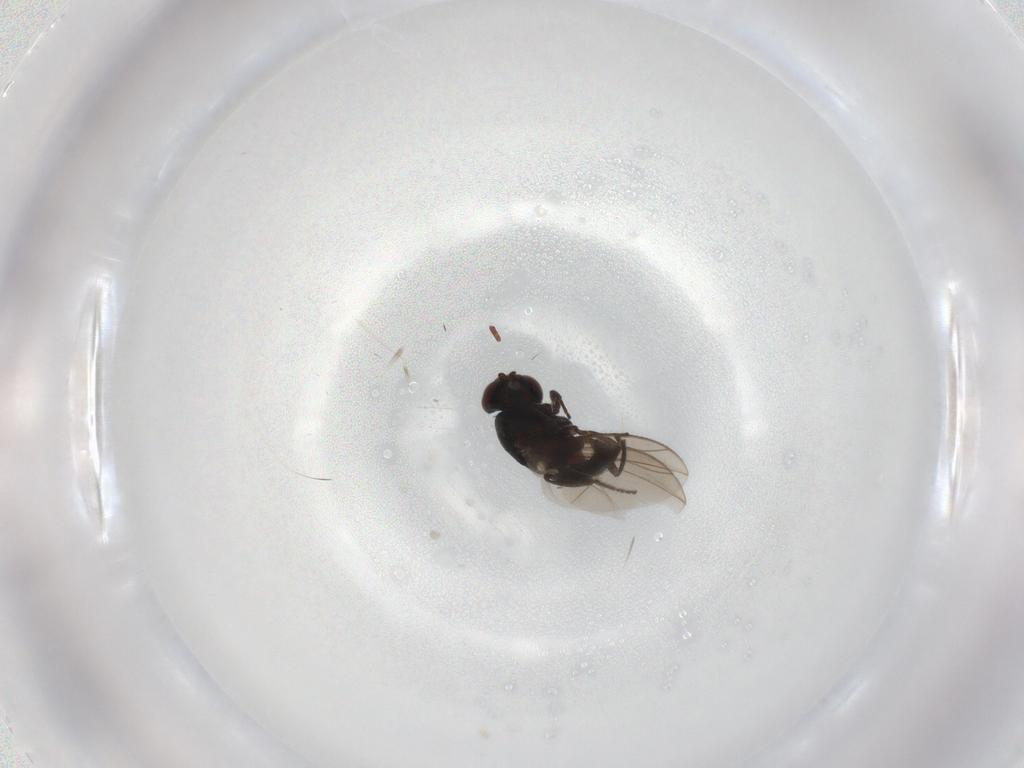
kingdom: Animalia
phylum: Arthropoda
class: Insecta
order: Diptera
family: Carnidae
